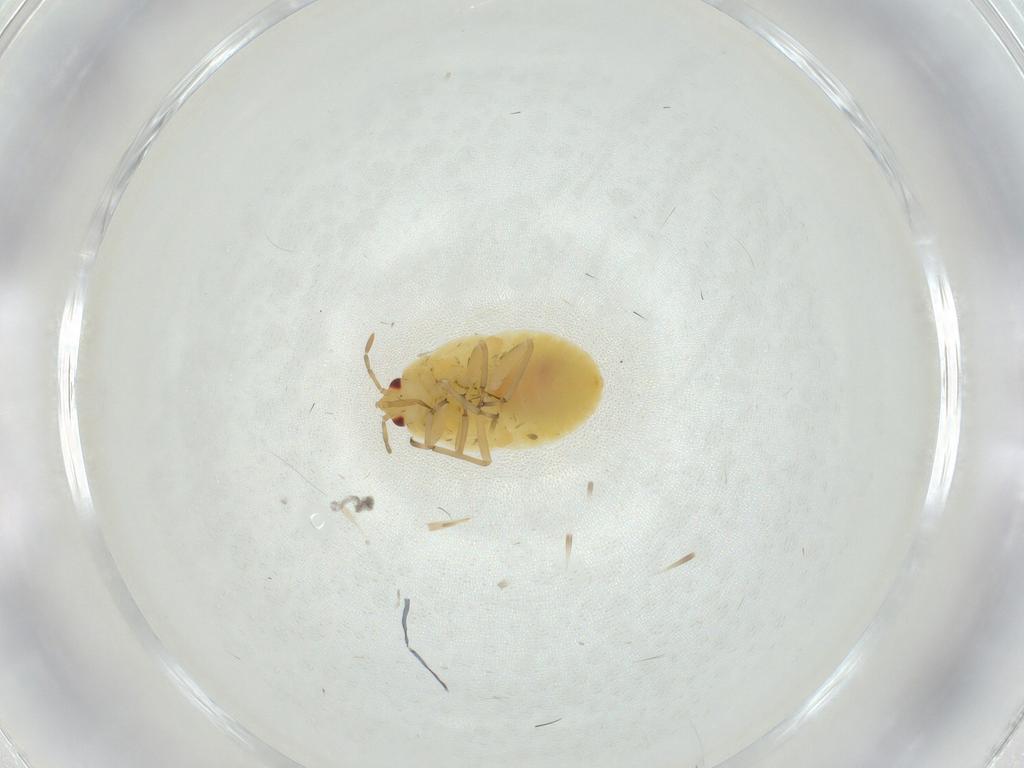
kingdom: Animalia
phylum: Arthropoda
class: Insecta
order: Hemiptera
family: Anthocoridae
